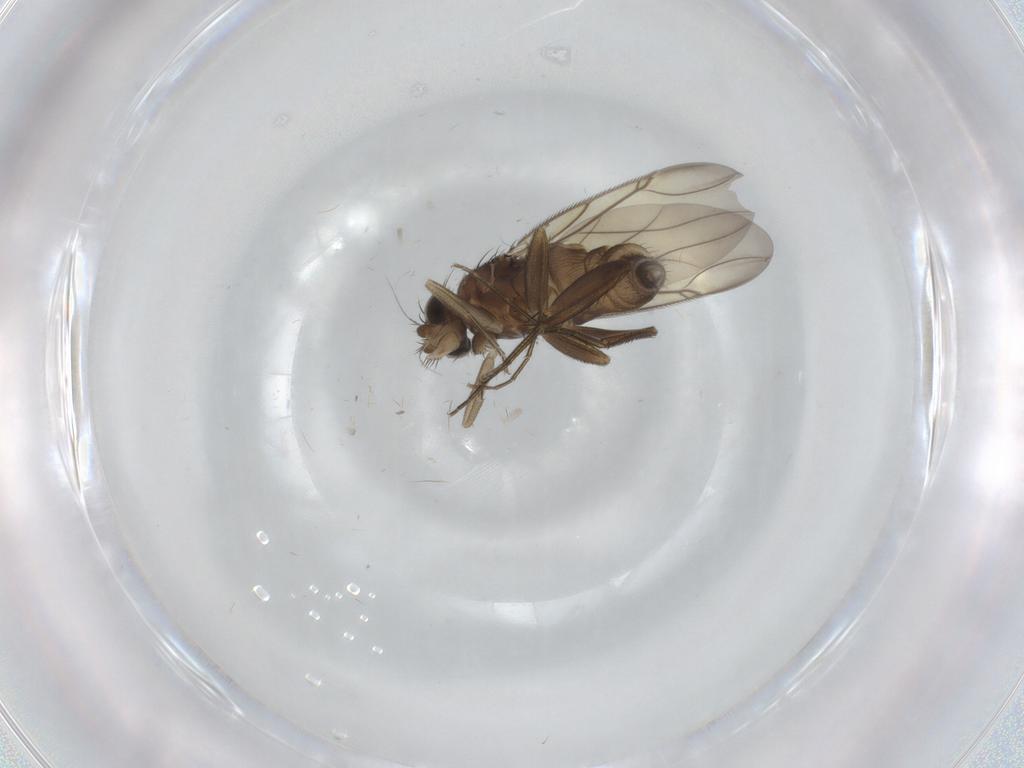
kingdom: Animalia
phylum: Arthropoda
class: Insecta
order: Diptera
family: Phoridae
